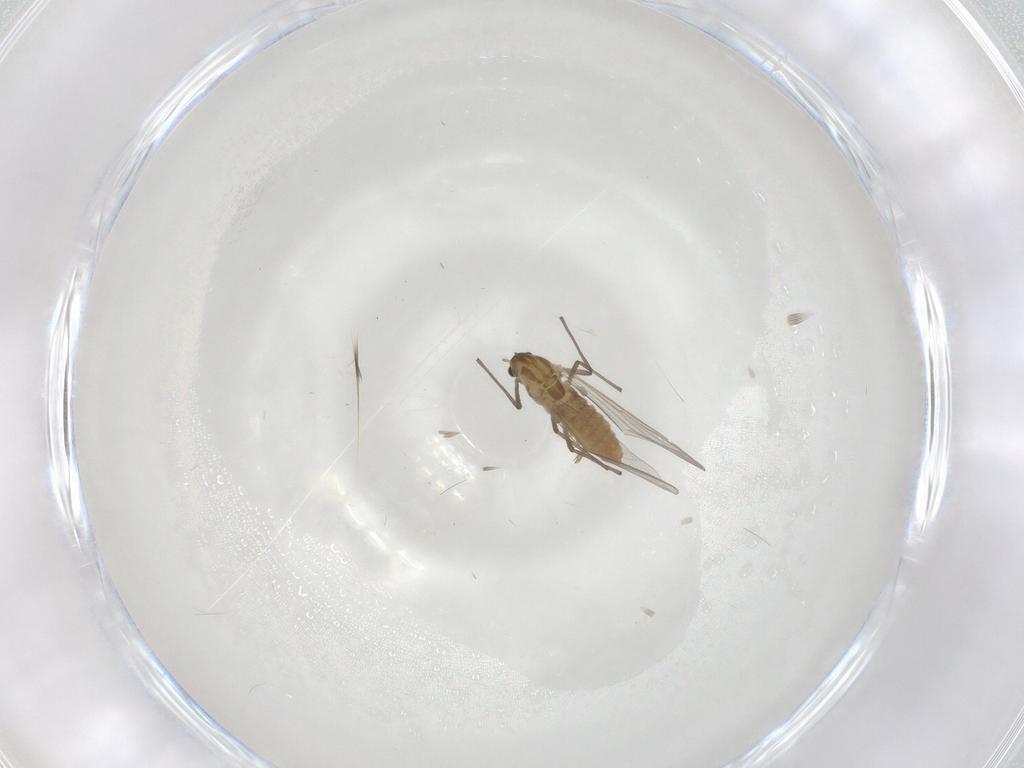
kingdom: Animalia
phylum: Arthropoda
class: Insecta
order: Diptera
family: Chironomidae
